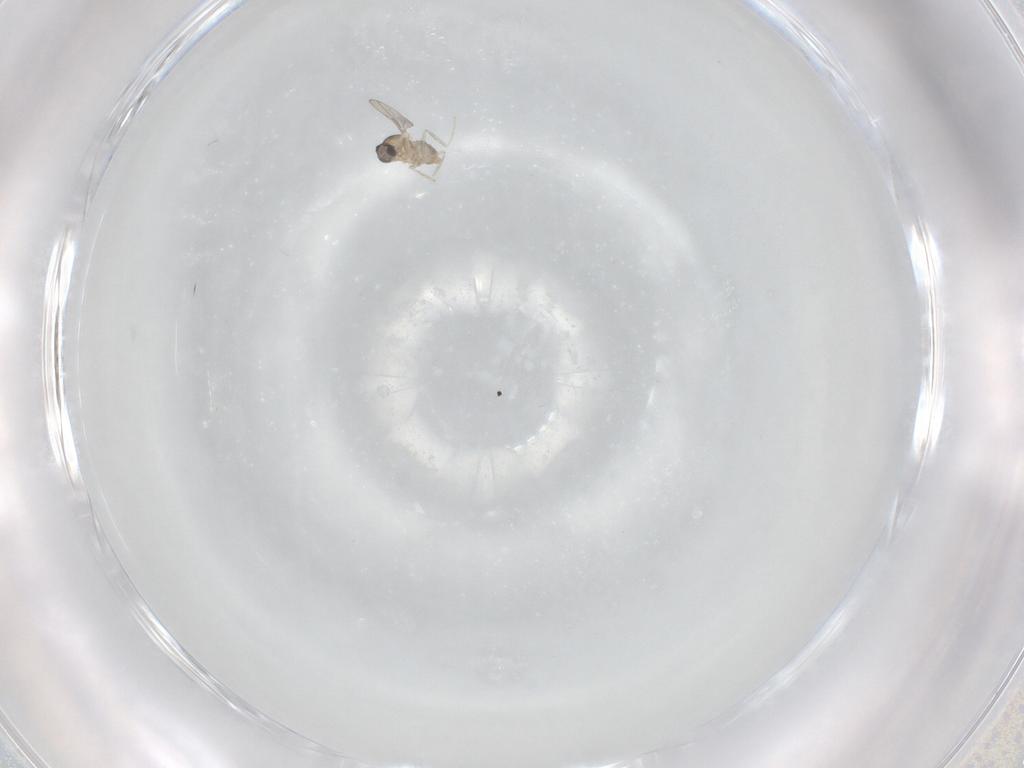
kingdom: Animalia
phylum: Arthropoda
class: Insecta
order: Diptera
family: Cecidomyiidae
